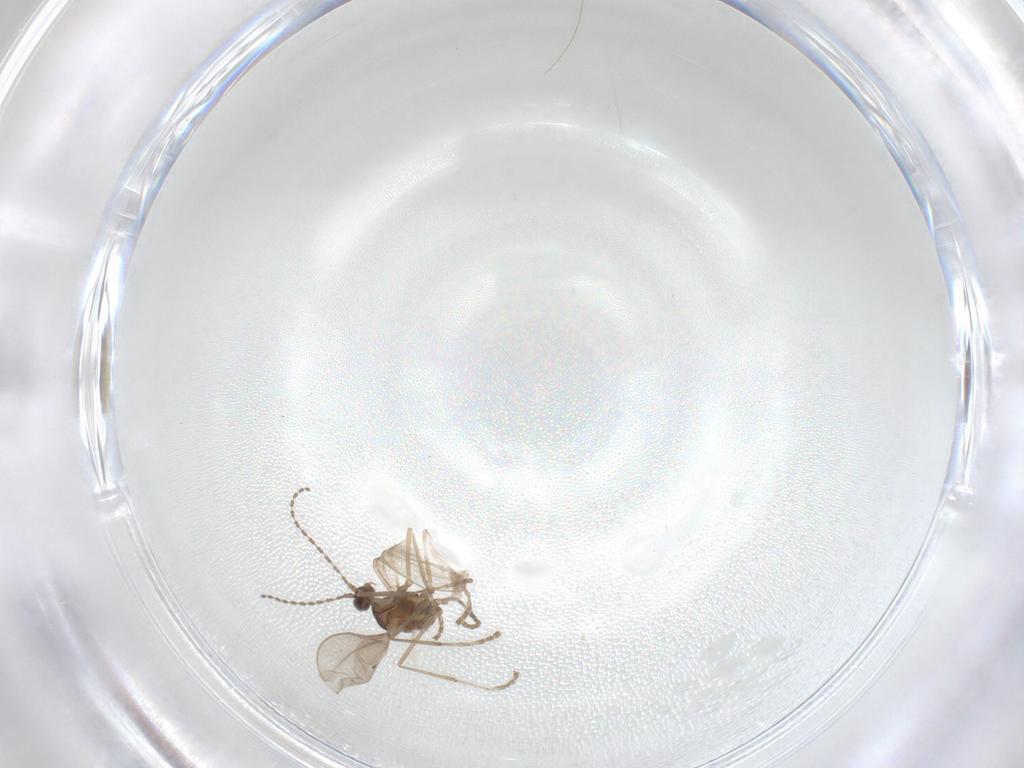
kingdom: Animalia
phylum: Arthropoda
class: Insecta
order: Diptera
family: Cecidomyiidae
